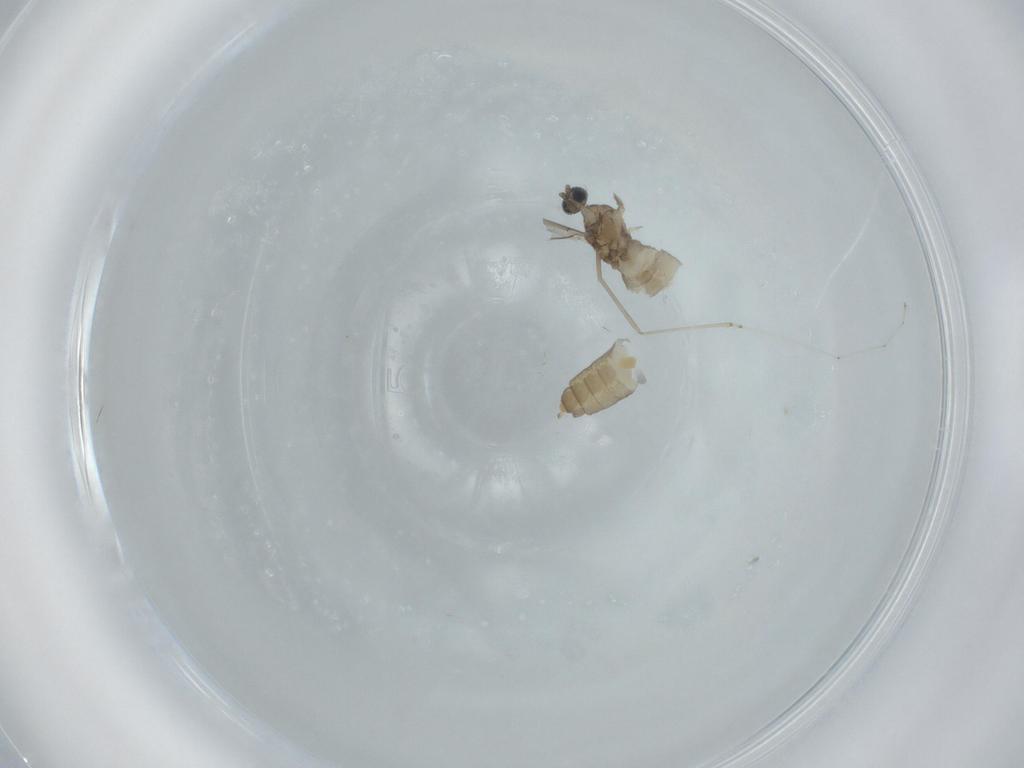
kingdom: Animalia
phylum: Arthropoda
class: Insecta
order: Diptera
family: Cecidomyiidae
